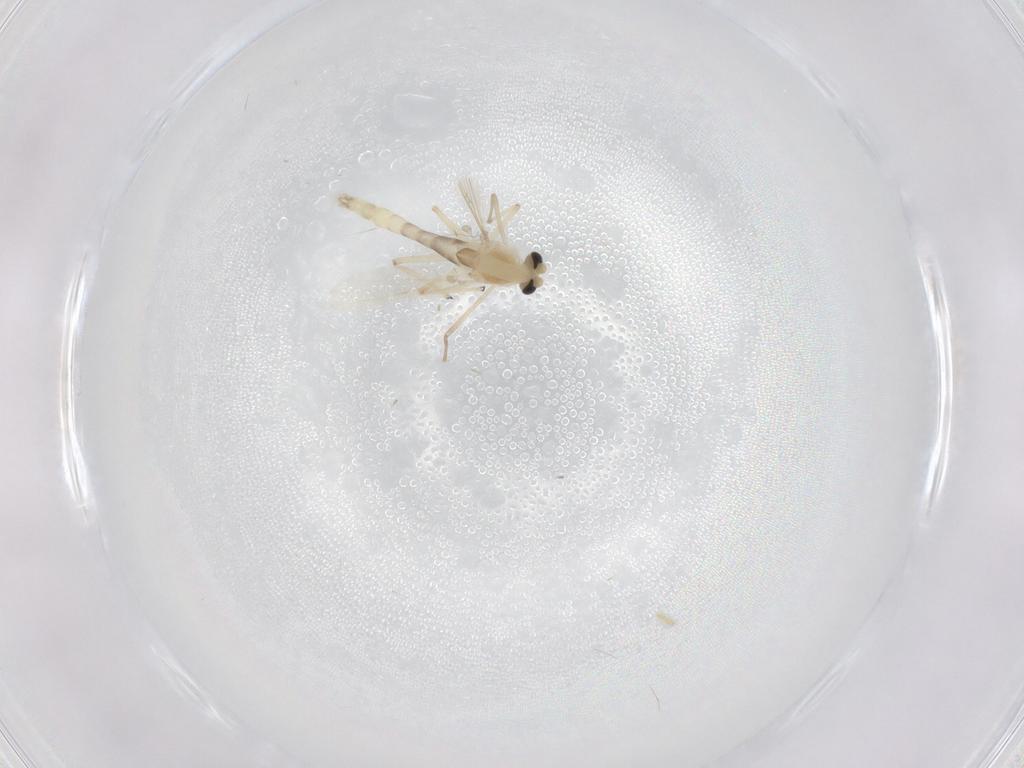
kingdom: Animalia
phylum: Arthropoda
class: Insecta
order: Diptera
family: Chironomidae
